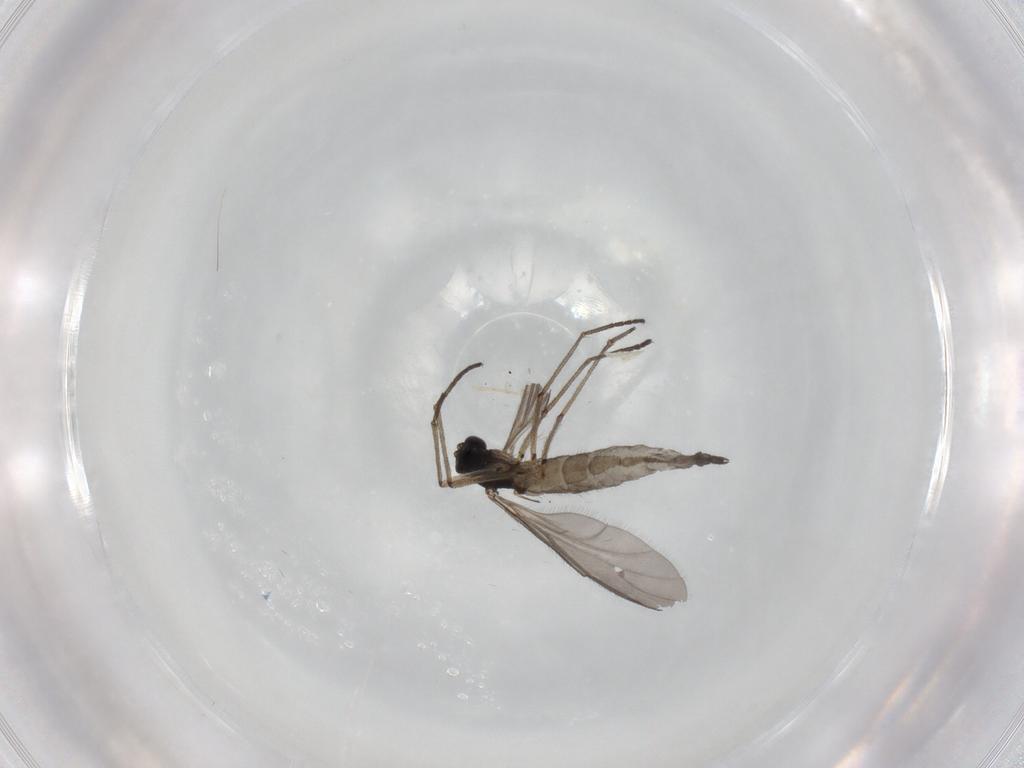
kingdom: Animalia
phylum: Arthropoda
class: Insecta
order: Diptera
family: Sciaridae
